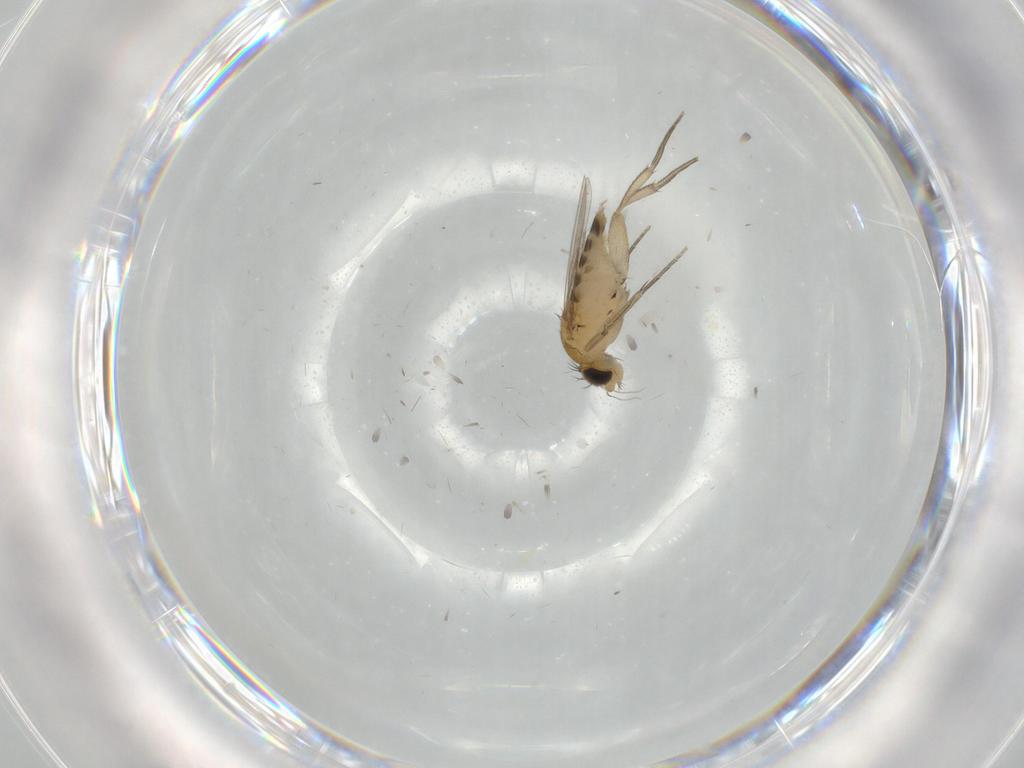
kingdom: Animalia
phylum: Arthropoda
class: Insecta
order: Diptera
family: Phoridae
